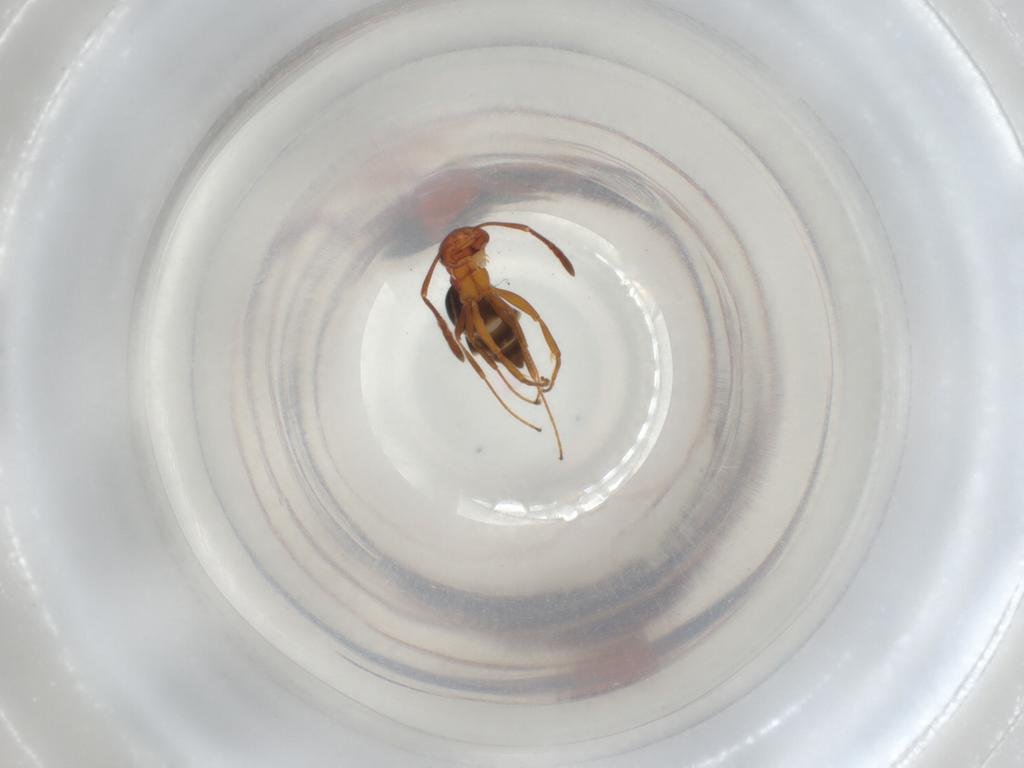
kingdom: Animalia
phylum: Arthropoda
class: Insecta
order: Hymenoptera
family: Formicidae
